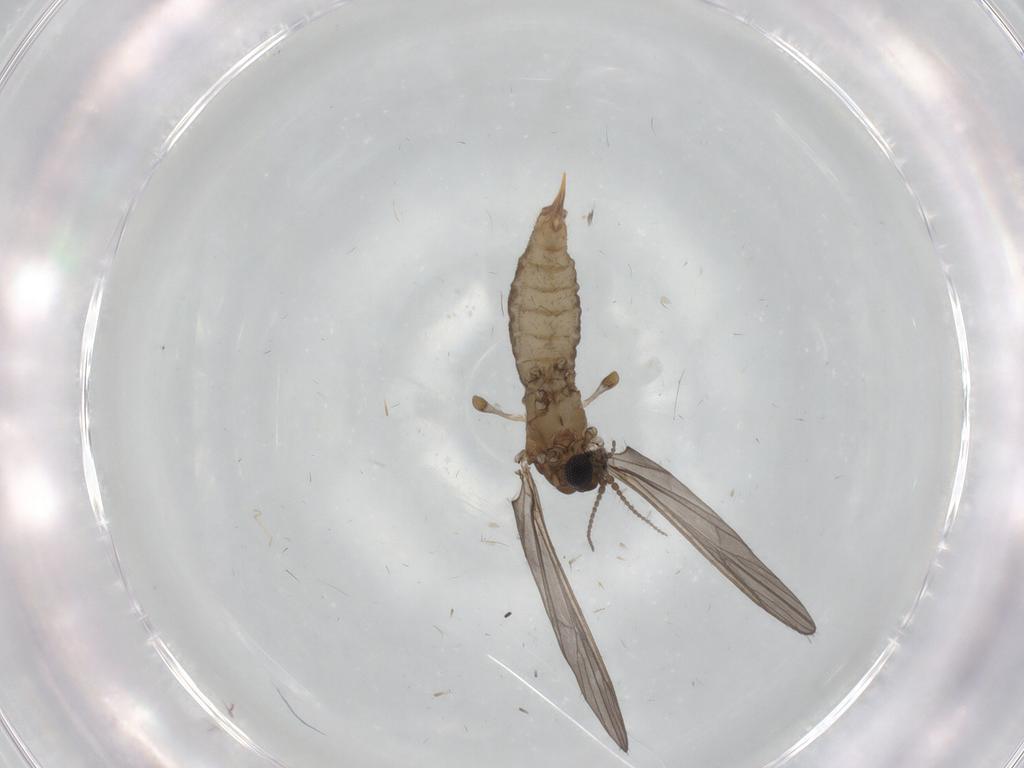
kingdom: Animalia
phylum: Arthropoda
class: Insecta
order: Diptera
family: Limoniidae
